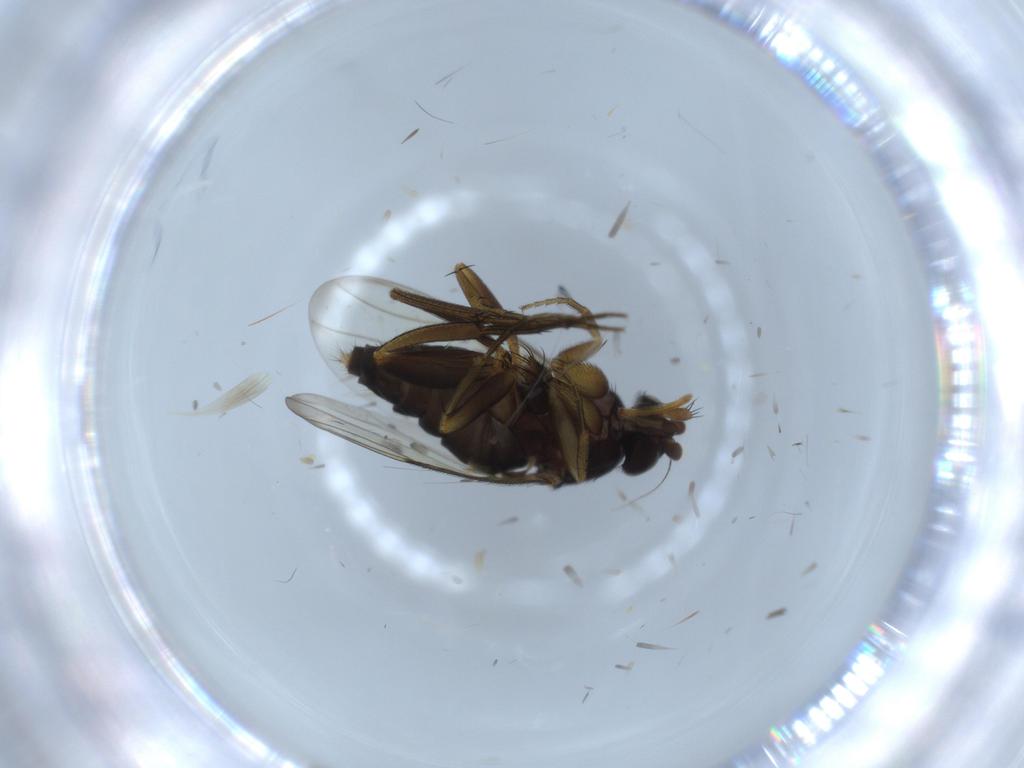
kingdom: Animalia
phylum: Arthropoda
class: Insecta
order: Diptera
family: Phoridae
